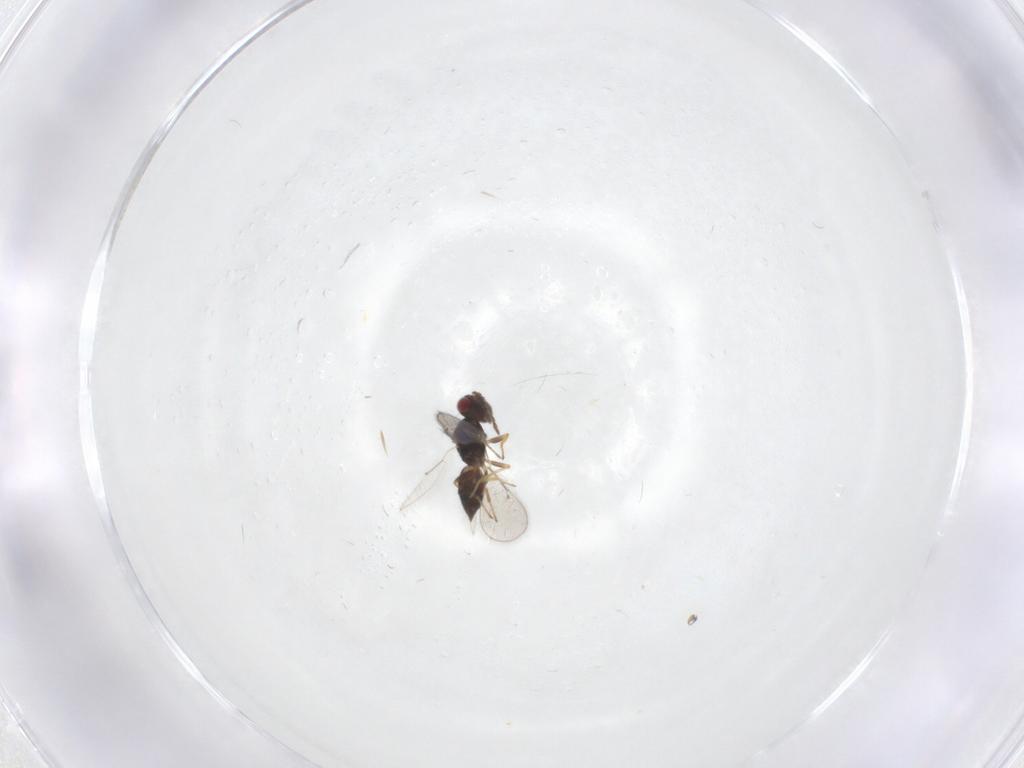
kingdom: Animalia
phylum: Arthropoda
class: Insecta
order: Hymenoptera
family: Eulophidae
